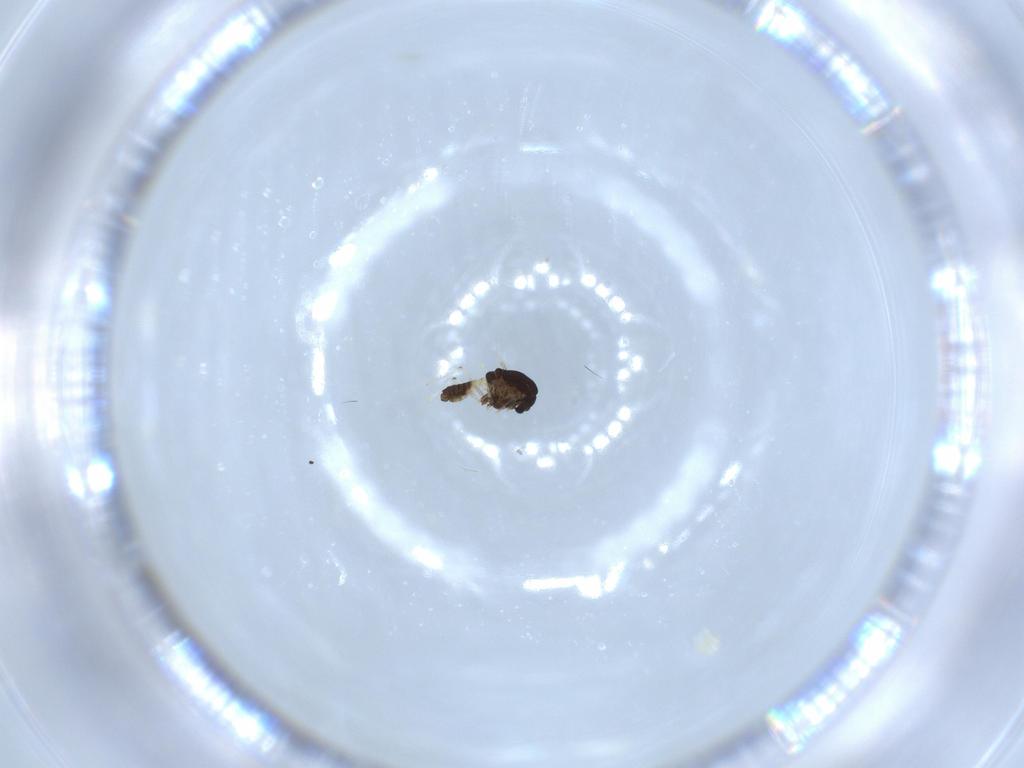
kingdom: Animalia
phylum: Arthropoda
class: Insecta
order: Diptera
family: Chironomidae
